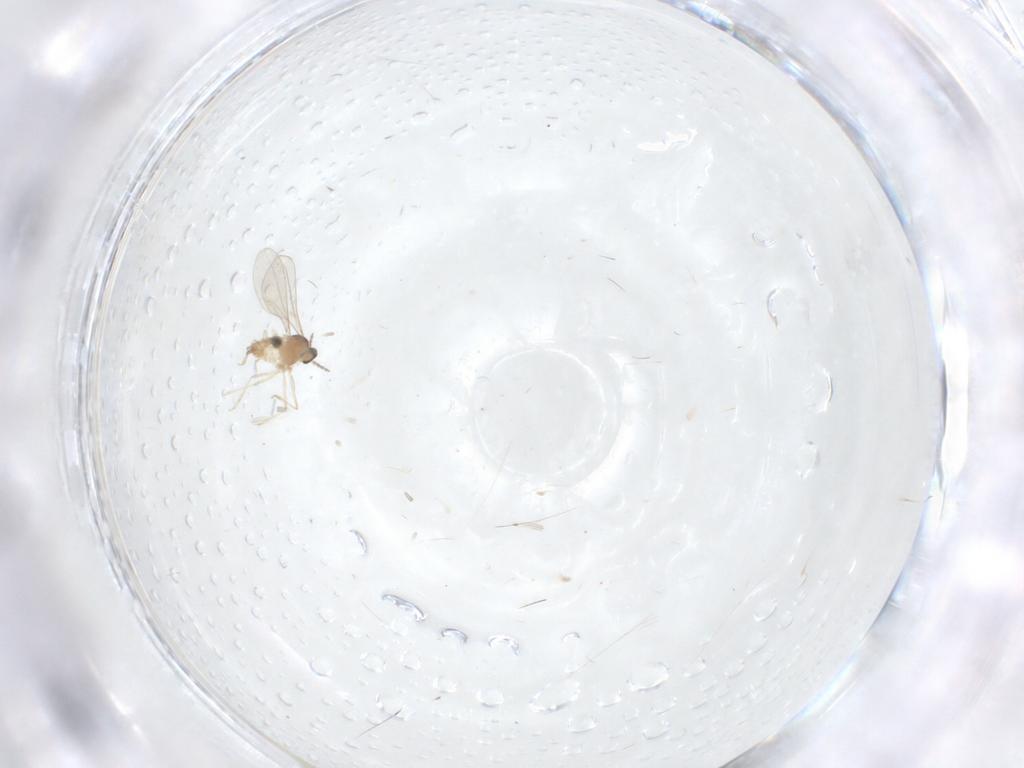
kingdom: Animalia
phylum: Arthropoda
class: Insecta
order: Diptera
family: Cecidomyiidae
